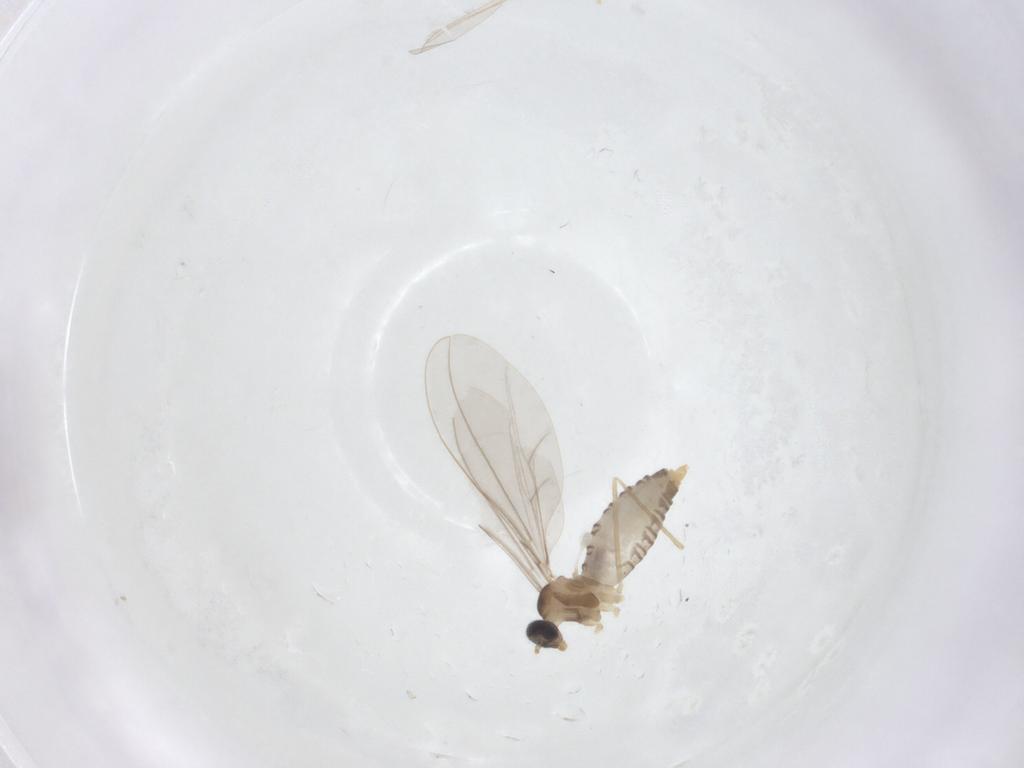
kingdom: Animalia
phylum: Arthropoda
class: Insecta
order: Diptera
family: Chironomidae
